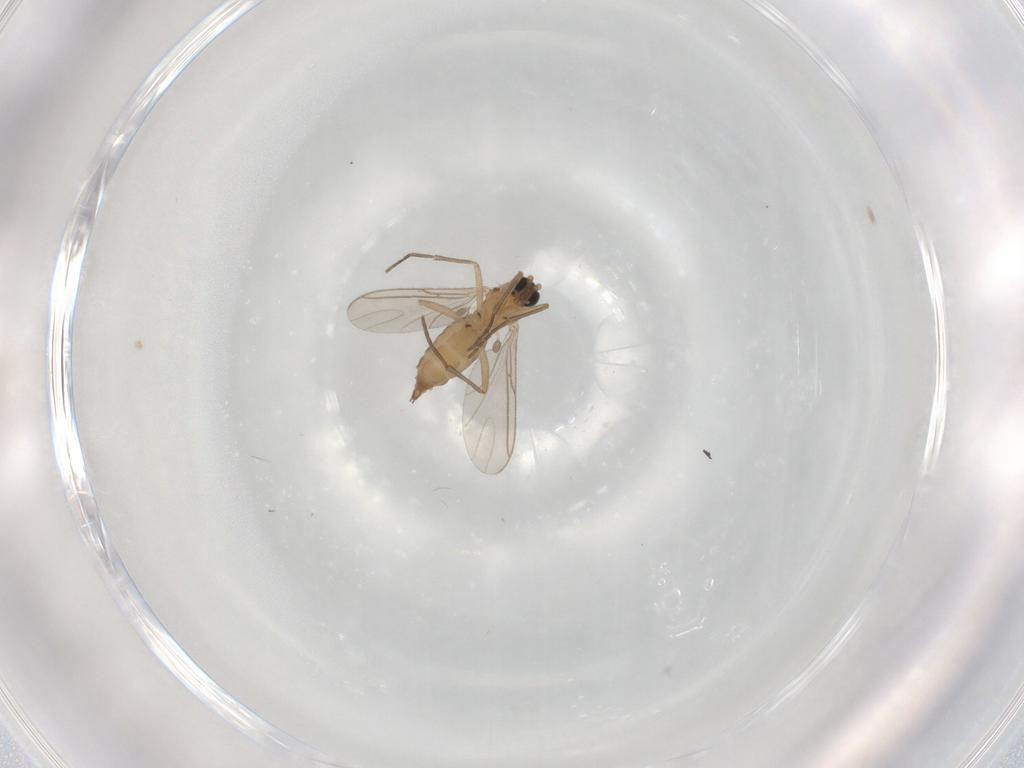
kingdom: Animalia
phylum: Arthropoda
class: Insecta
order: Diptera
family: Sciaridae
